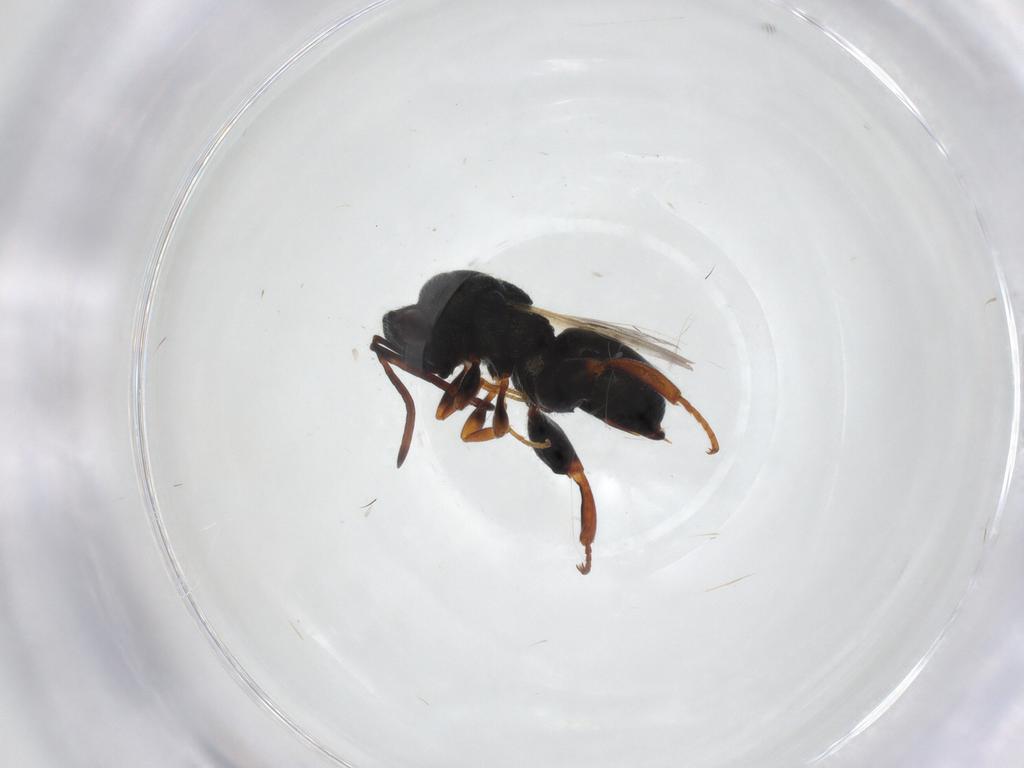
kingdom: Animalia
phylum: Arthropoda
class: Insecta
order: Hymenoptera
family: Chalcididae
